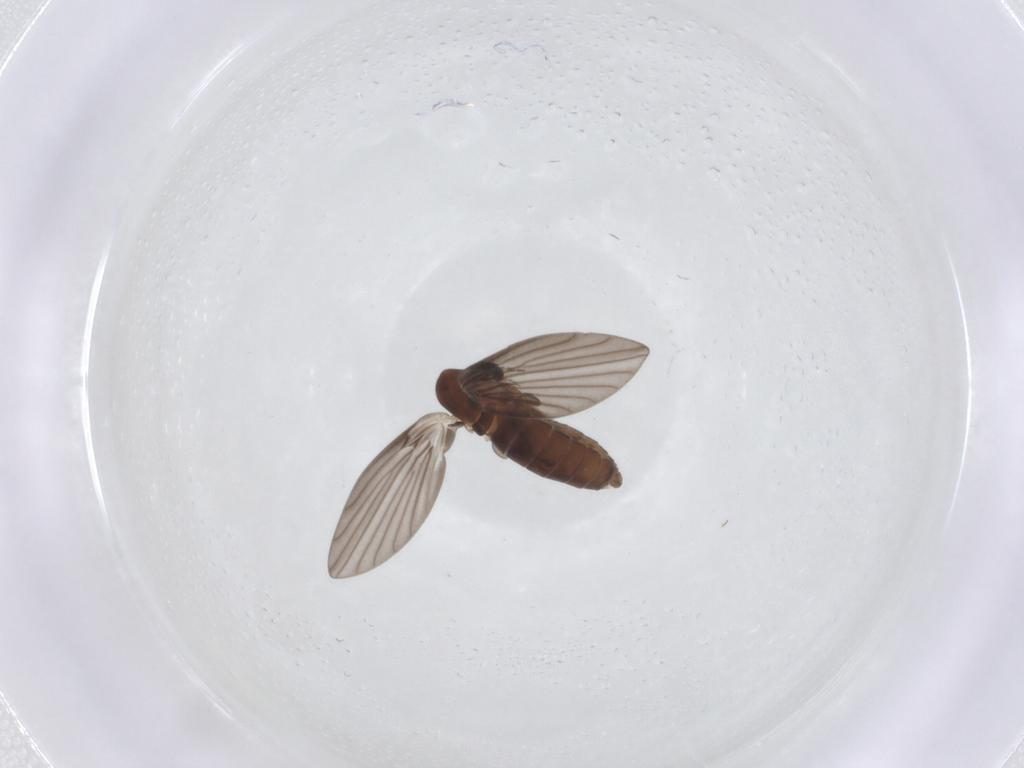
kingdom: Animalia
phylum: Arthropoda
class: Insecta
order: Diptera
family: Psychodidae
